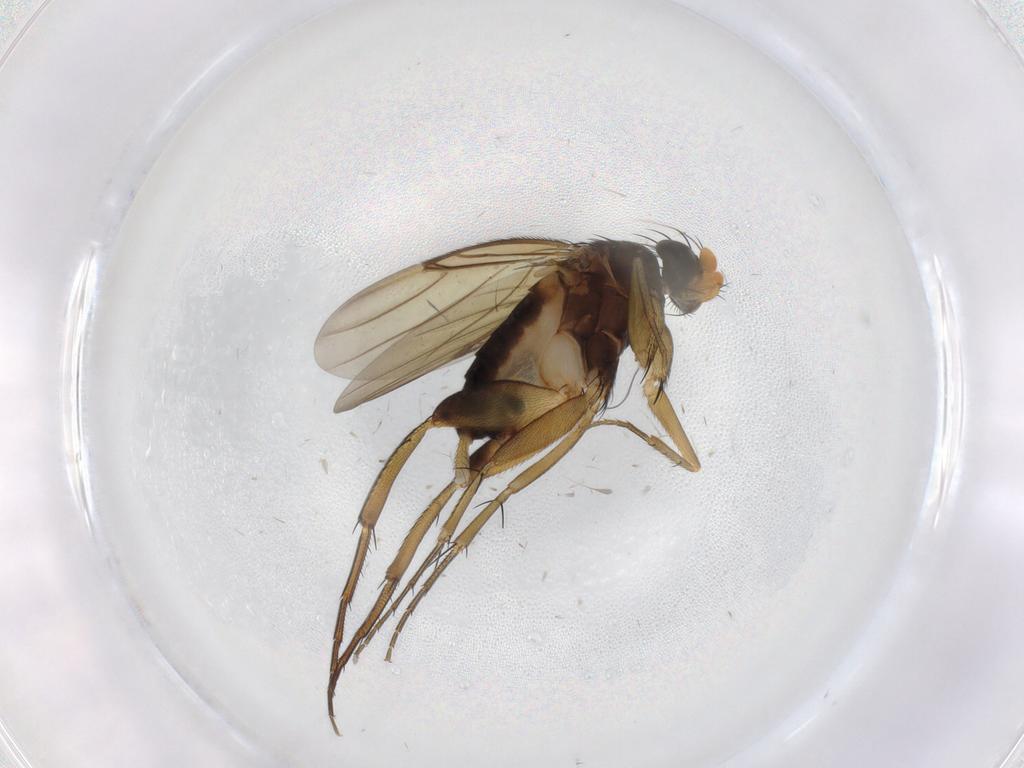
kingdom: Animalia
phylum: Arthropoda
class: Insecta
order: Diptera
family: Phoridae
